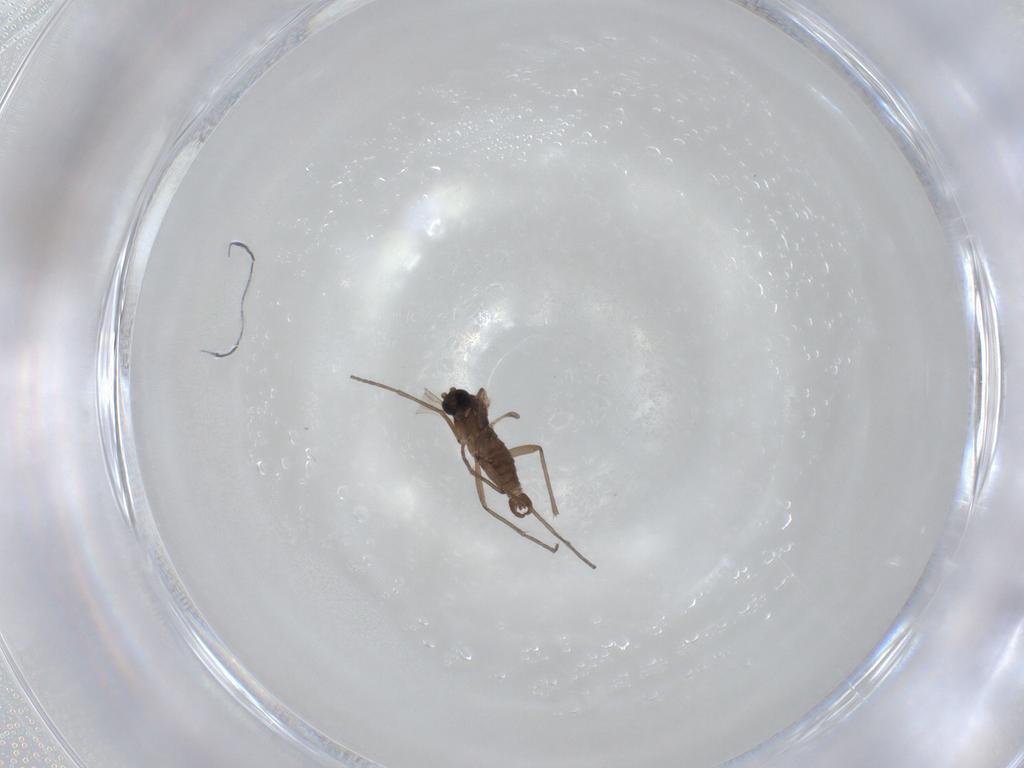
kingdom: Animalia
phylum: Arthropoda
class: Insecta
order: Diptera
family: Sciaridae
